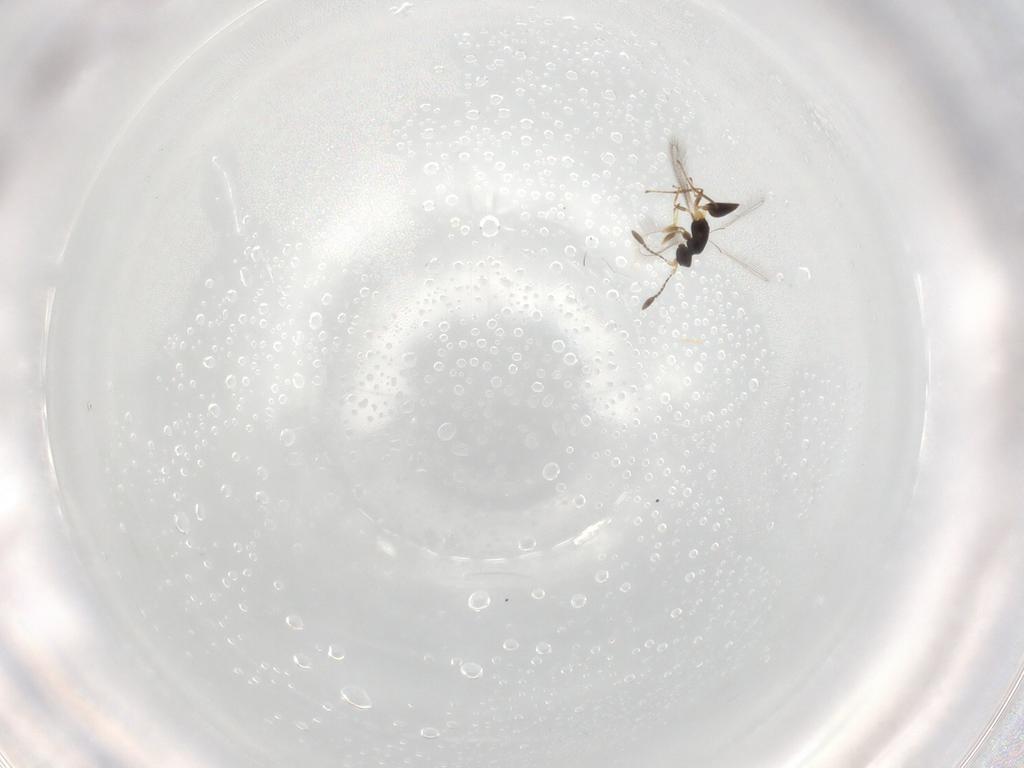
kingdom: Animalia
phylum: Arthropoda
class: Insecta
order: Hymenoptera
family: Mymaridae
